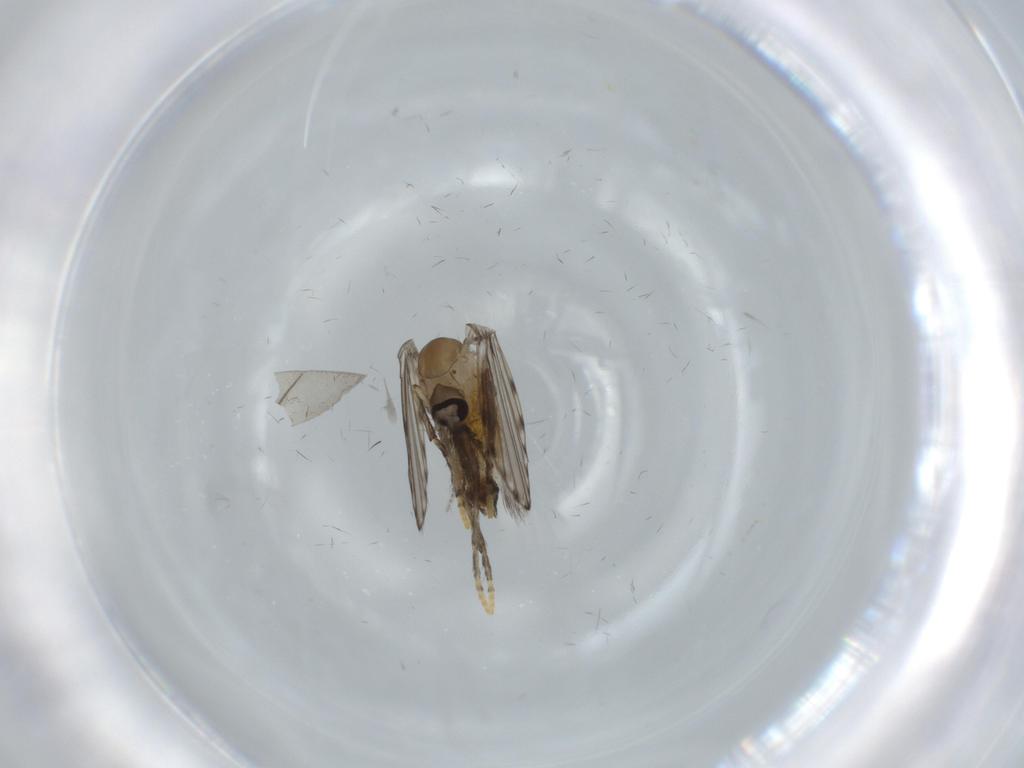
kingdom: Animalia
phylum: Arthropoda
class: Insecta
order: Diptera
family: Psychodidae
